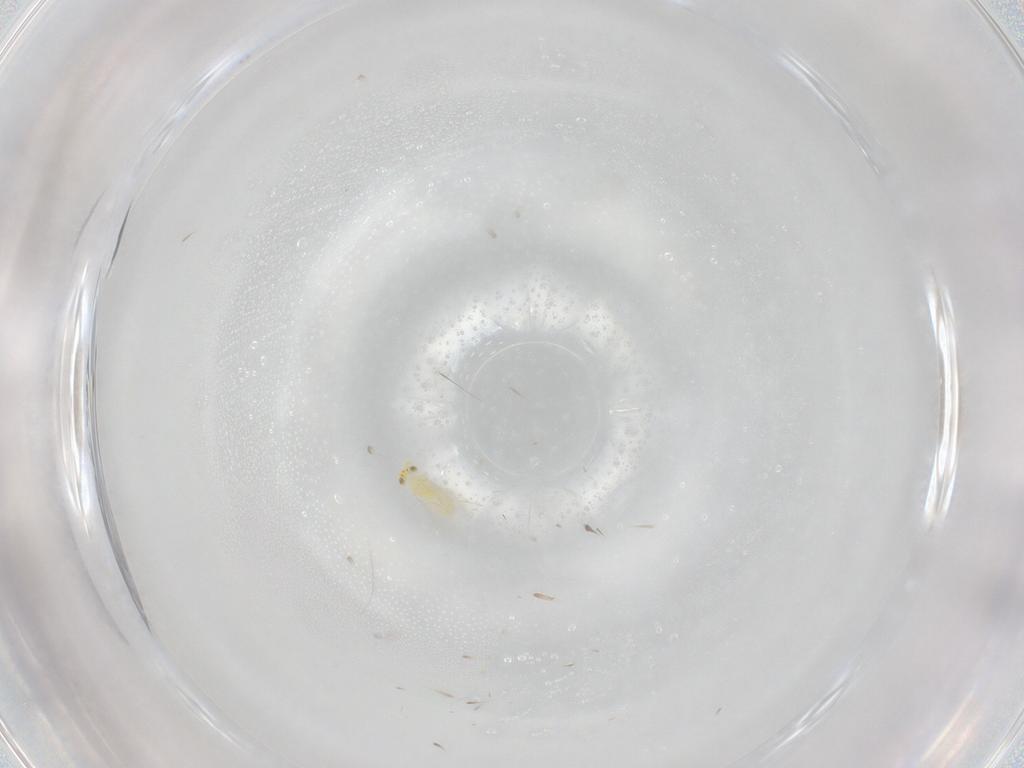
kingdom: Animalia
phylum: Arthropoda
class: Insecta
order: Hymenoptera
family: Aphelinidae
